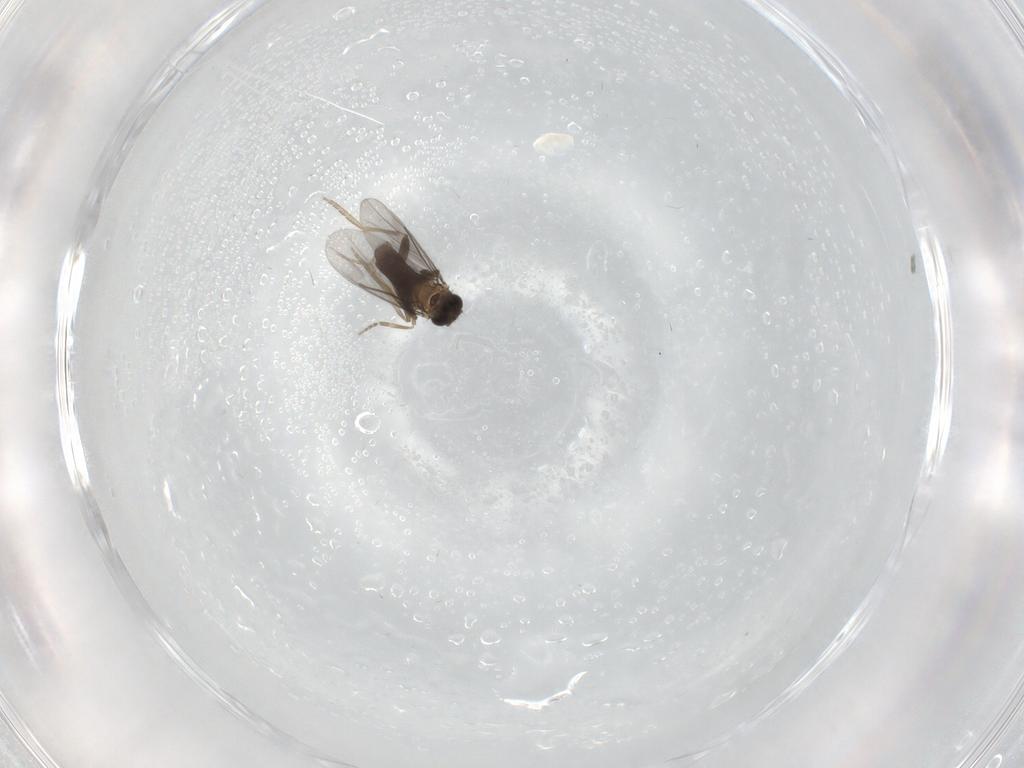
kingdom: Animalia
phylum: Arthropoda
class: Insecta
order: Diptera
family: Keroplatidae
